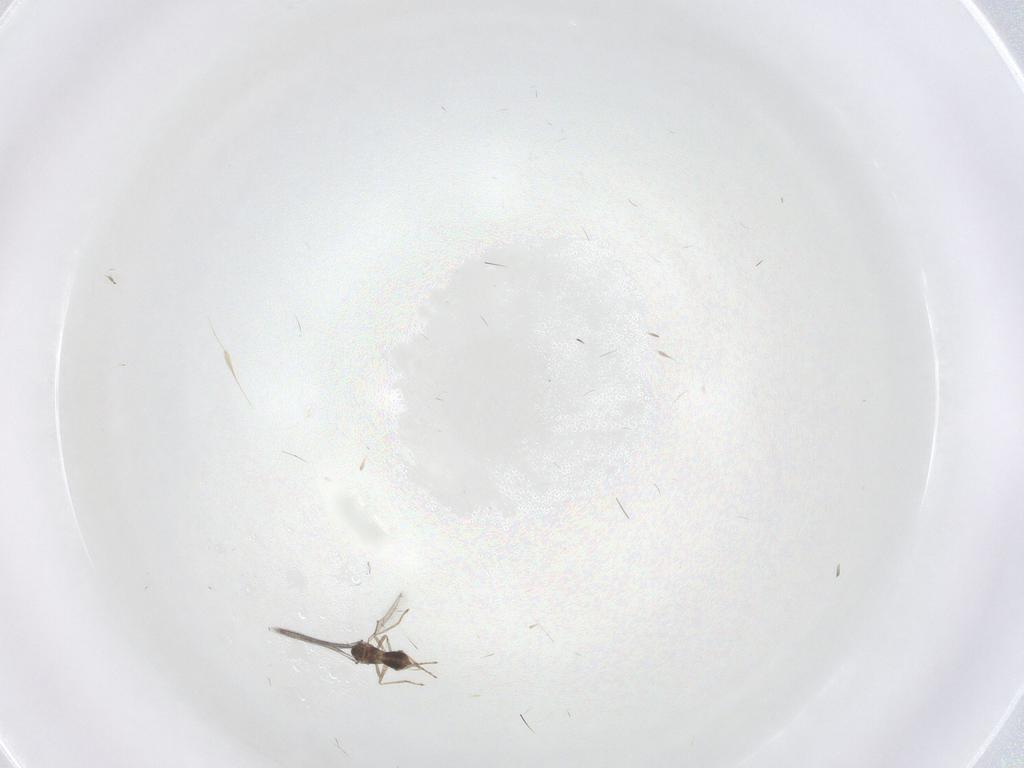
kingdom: Animalia
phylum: Arthropoda
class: Insecta
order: Hymenoptera
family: Eulophidae
